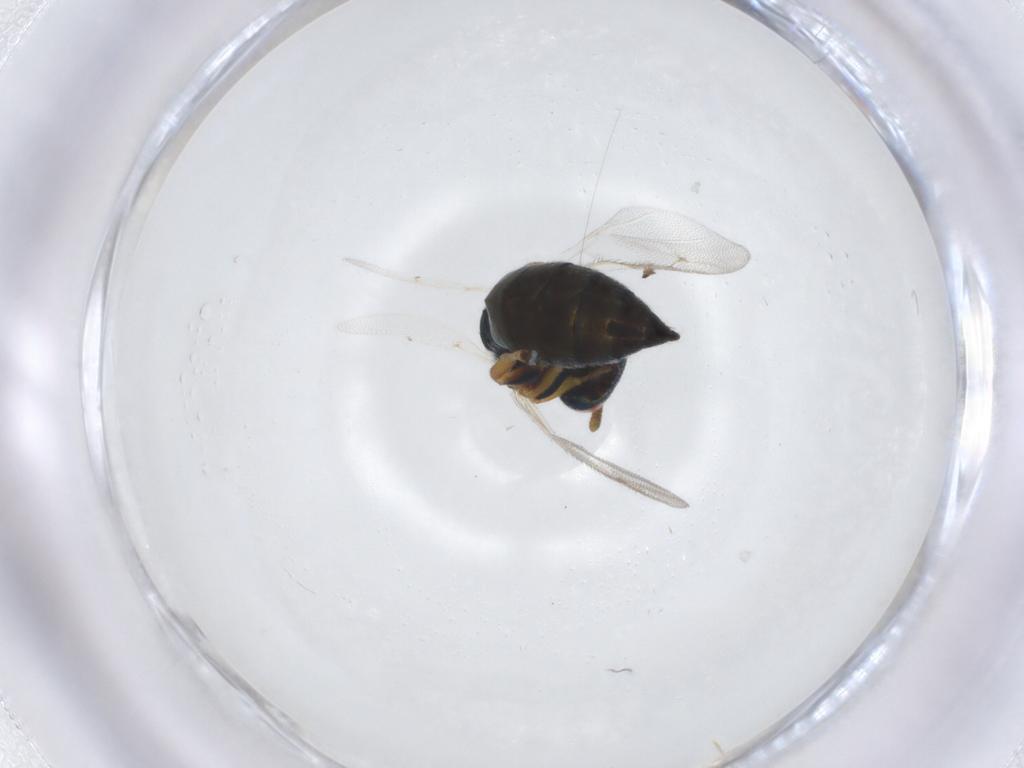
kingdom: Animalia
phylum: Arthropoda
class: Insecta
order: Hymenoptera
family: Pteromalidae
